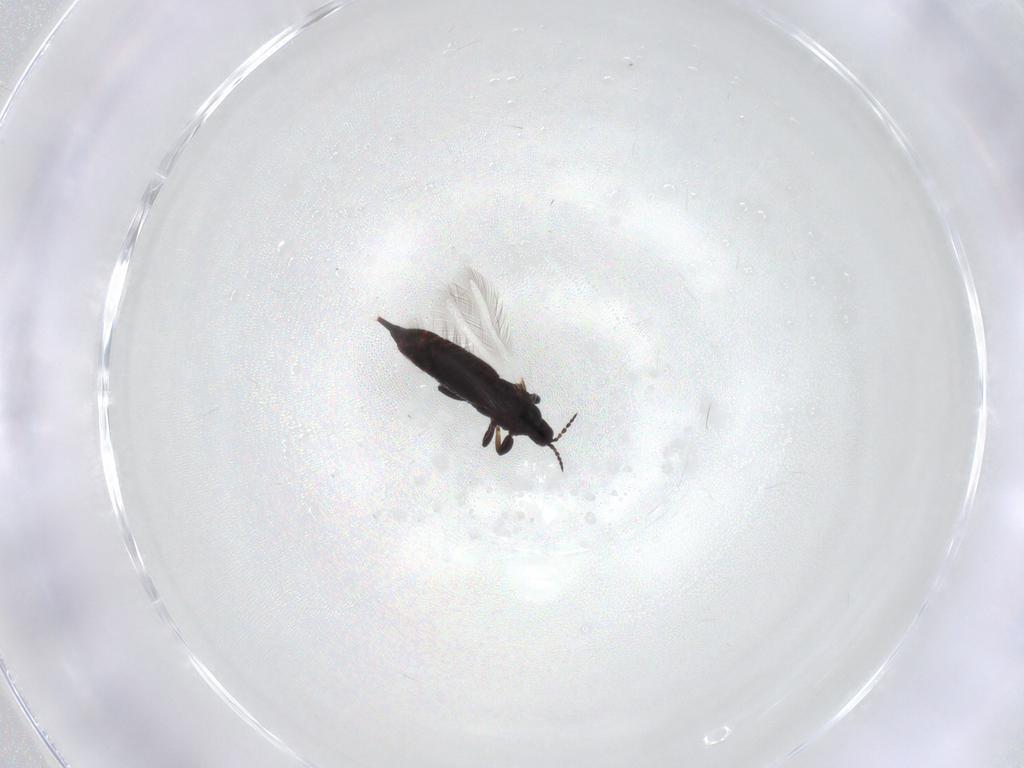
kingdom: Animalia
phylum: Arthropoda
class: Insecta
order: Thysanoptera
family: Phlaeothripidae
